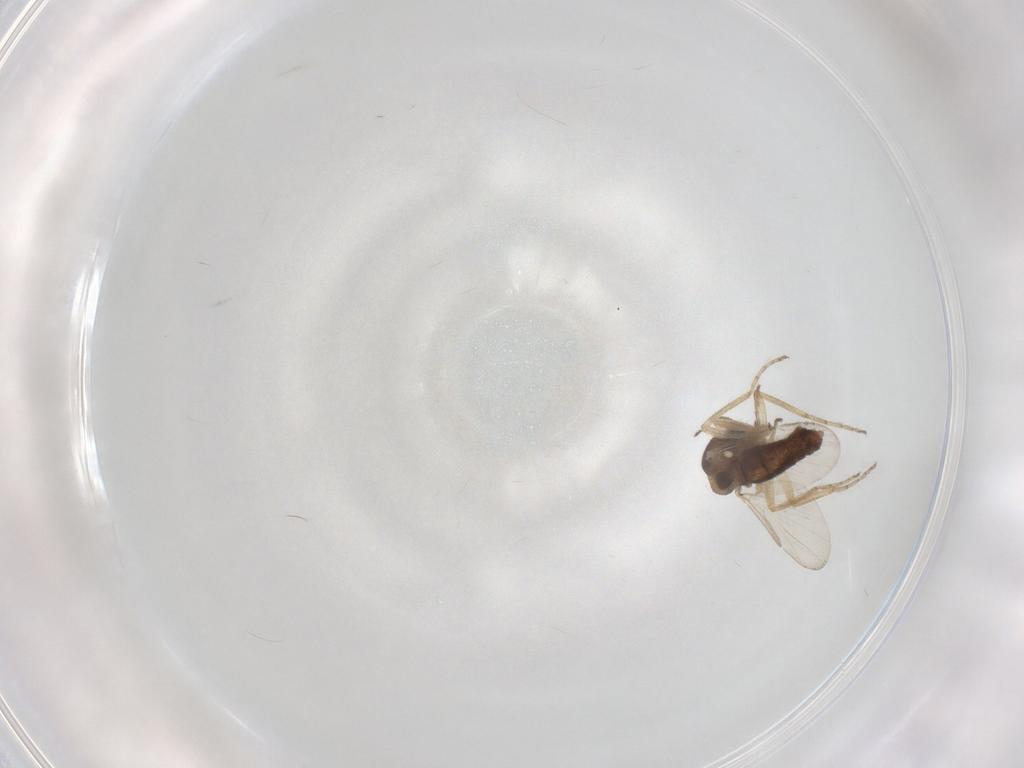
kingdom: Animalia
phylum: Arthropoda
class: Insecta
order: Diptera
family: Ceratopogonidae
